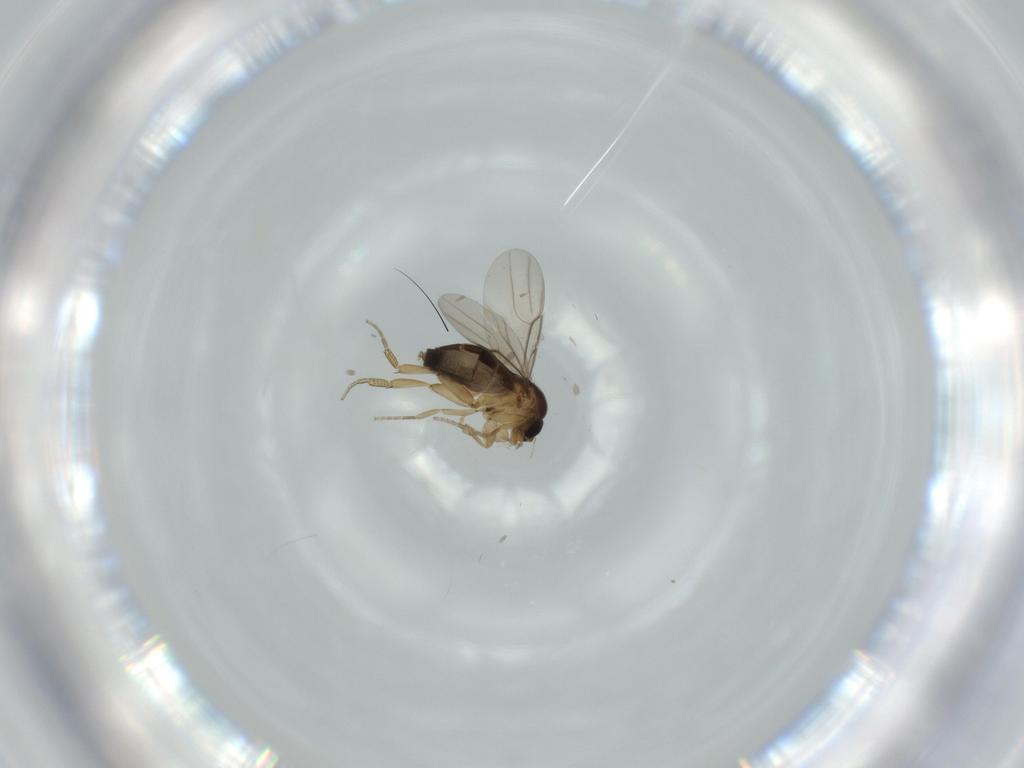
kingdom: Animalia
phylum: Arthropoda
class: Insecta
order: Diptera
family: Phoridae
